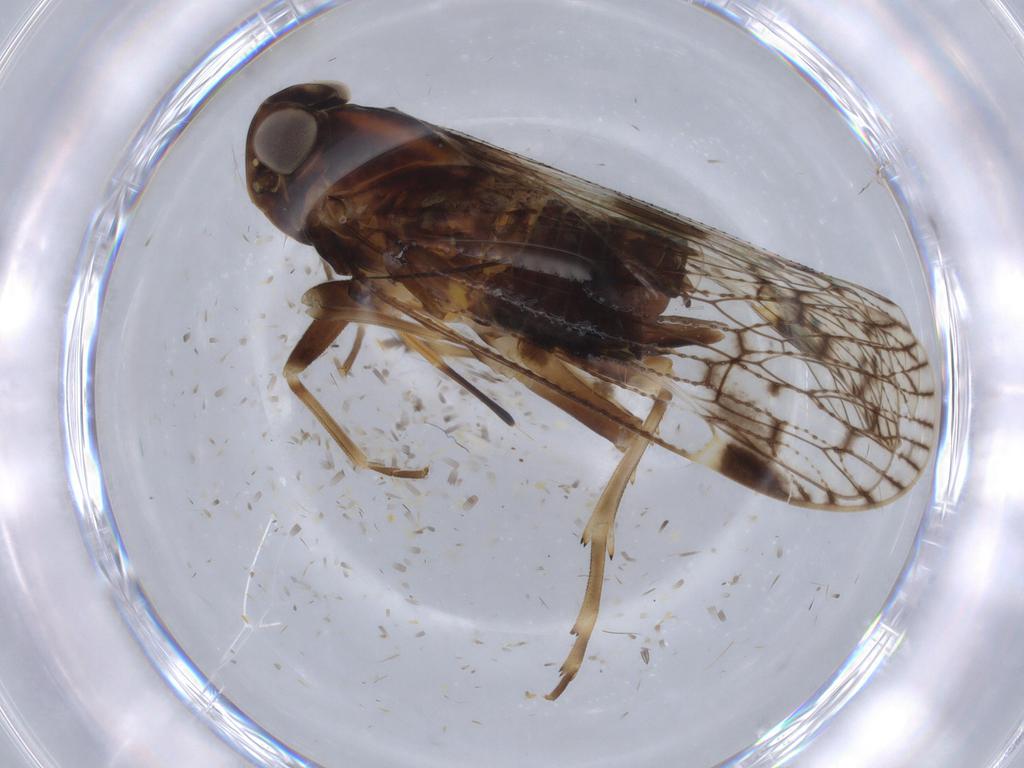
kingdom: Animalia
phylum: Arthropoda
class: Insecta
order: Hemiptera
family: Cixiidae
